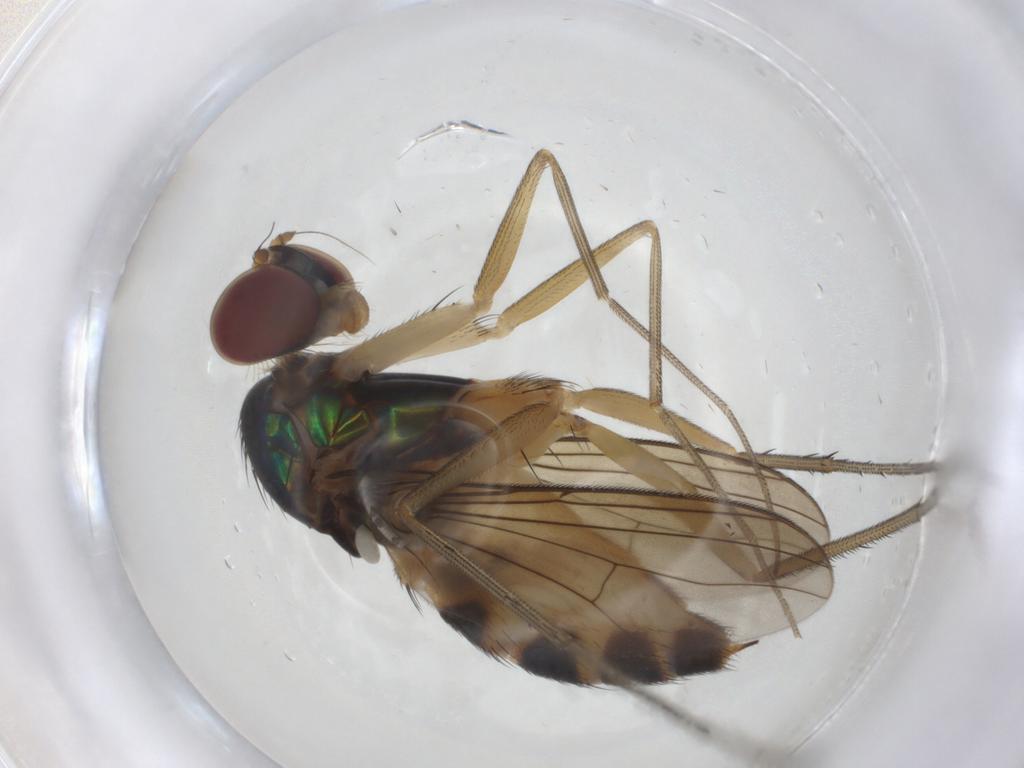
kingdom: Animalia
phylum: Arthropoda
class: Insecta
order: Diptera
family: Dolichopodidae
